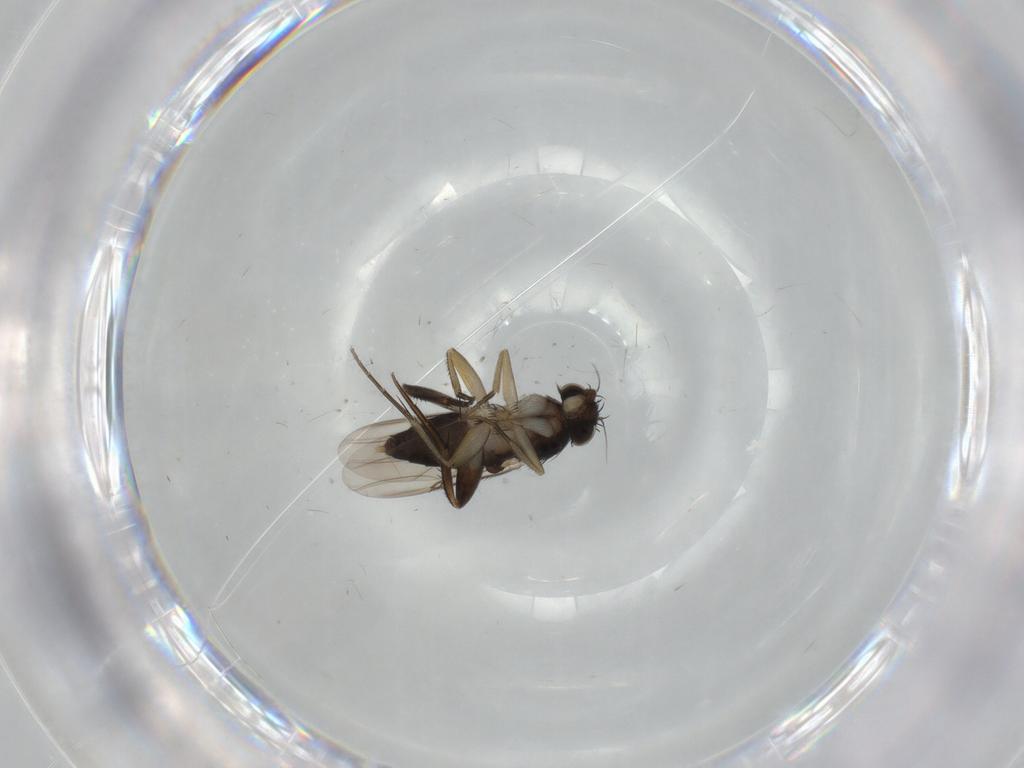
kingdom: Animalia
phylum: Arthropoda
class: Insecta
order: Diptera
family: Phoridae
